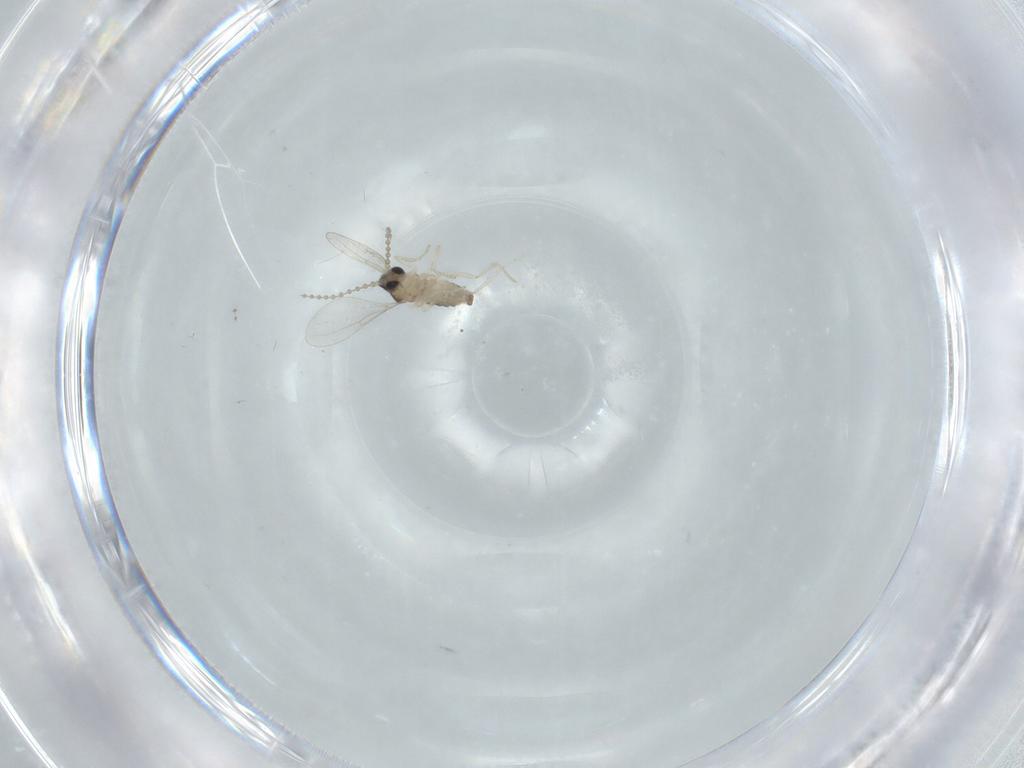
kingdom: Animalia
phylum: Arthropoda
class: Insecta
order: Diptera
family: Cecidomyiidae
